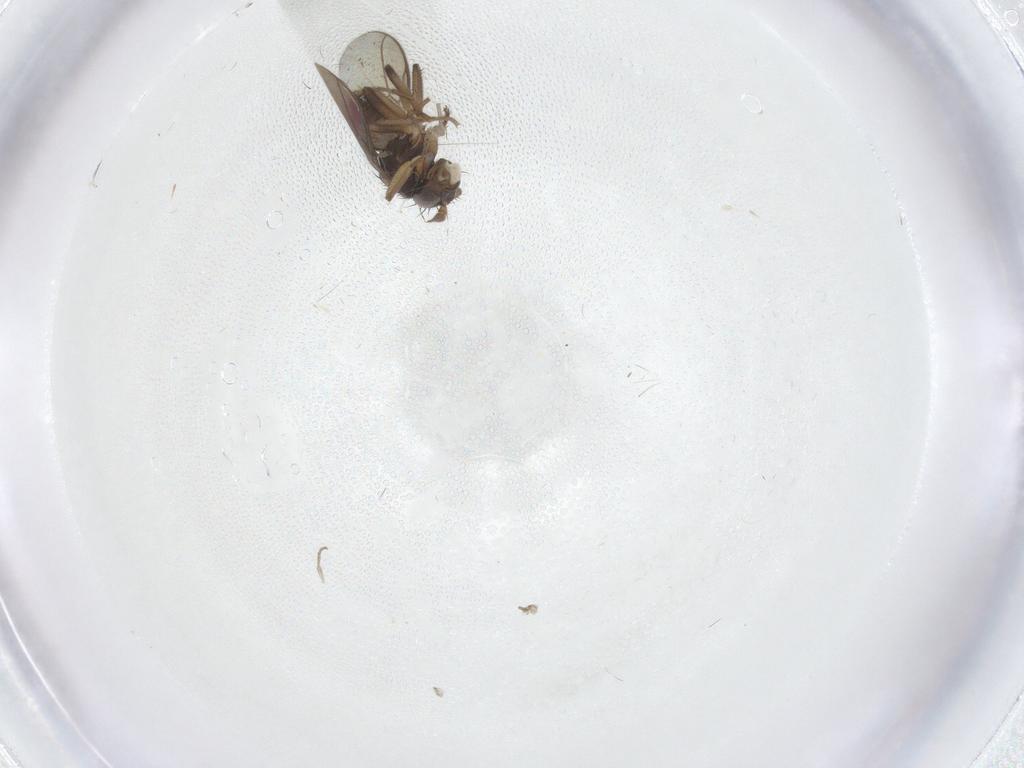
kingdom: Animalia
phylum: Arthropoda
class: Insecta
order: Diptera
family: Sphaeroceridae
